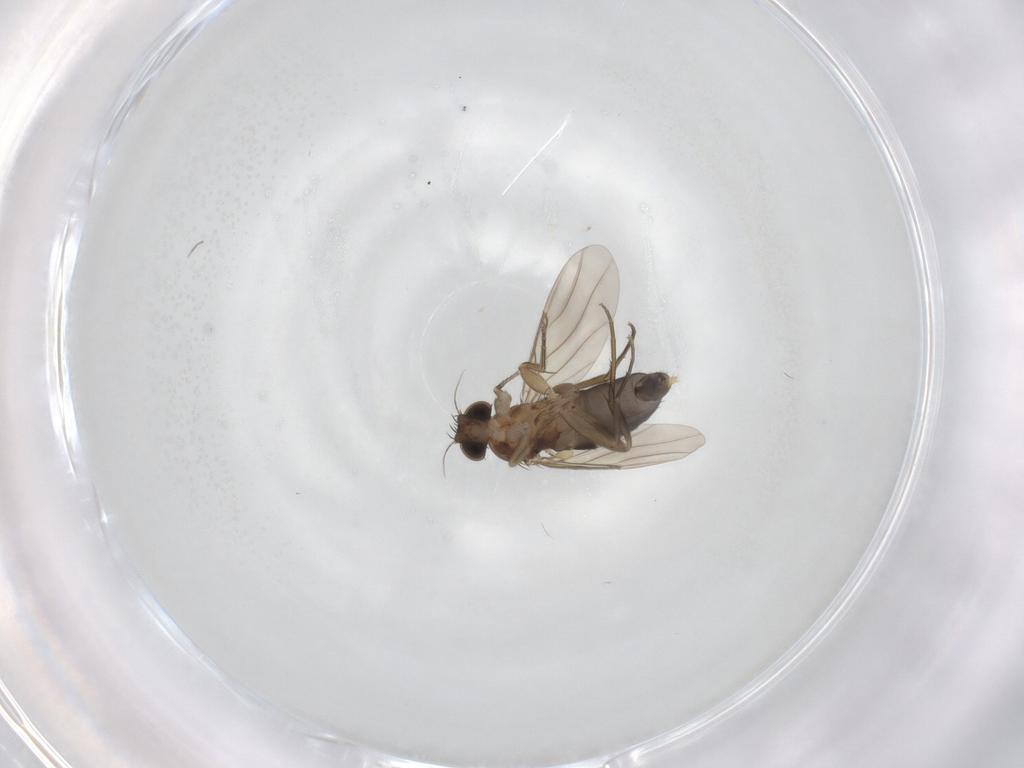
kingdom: Animalia
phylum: Arthropoda
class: Insecta
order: Diptera
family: Phoridae
